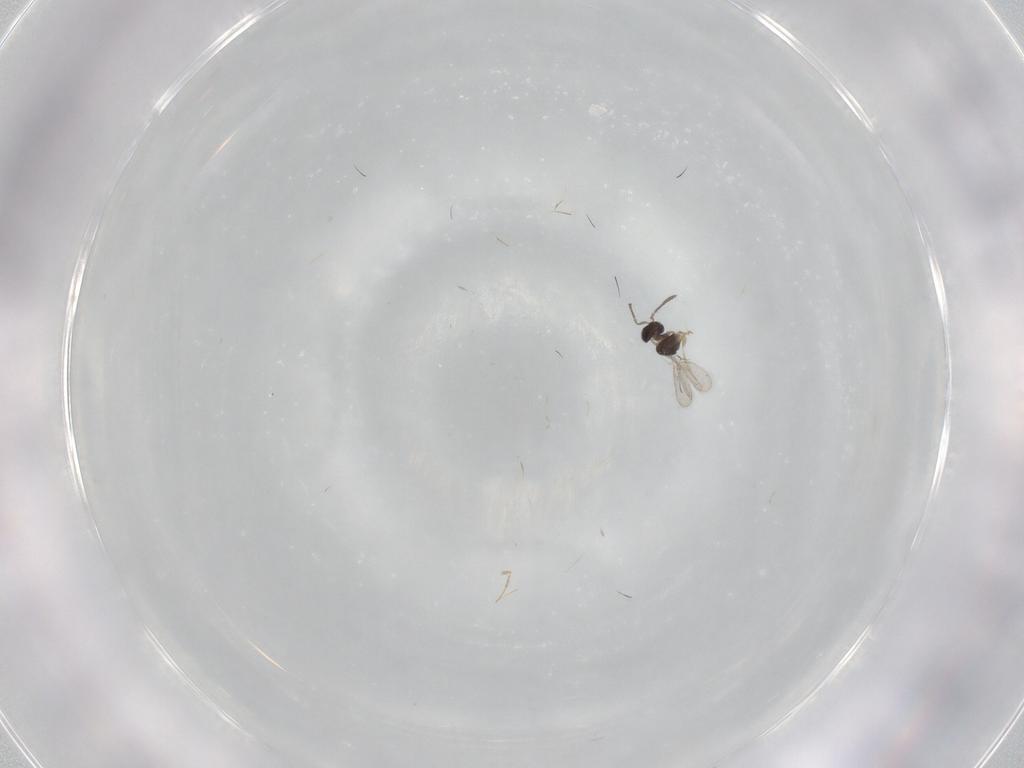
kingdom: Animalia
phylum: Arthropoda
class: Insecta
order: Hymenoptera
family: Scelionidae
